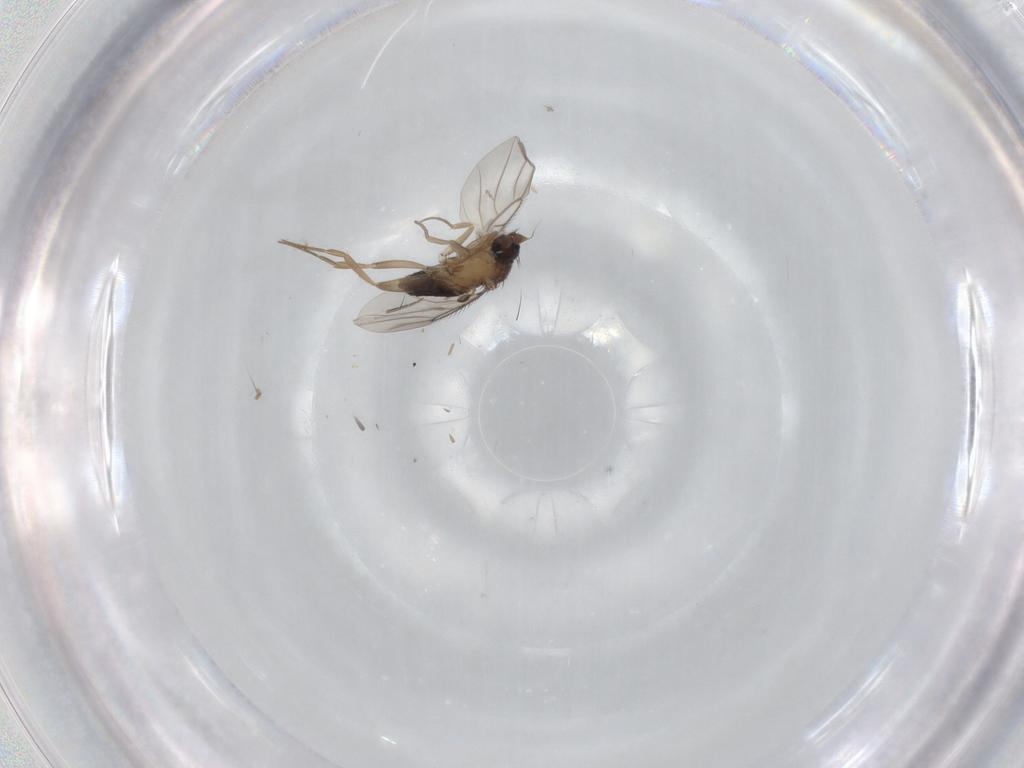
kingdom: Animalia
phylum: Arthropoda
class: Insecta
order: Diptera
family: Phoridae
